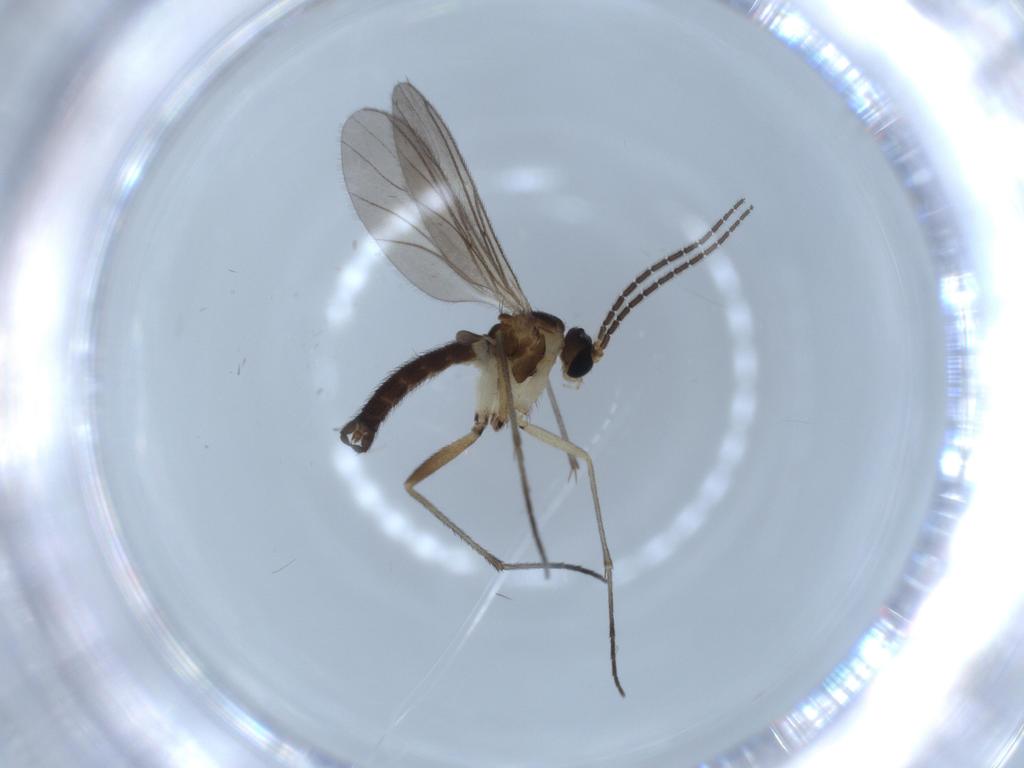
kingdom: Animalia
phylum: Arthropoda
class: Insecta
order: Diptera
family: Sciaridae
